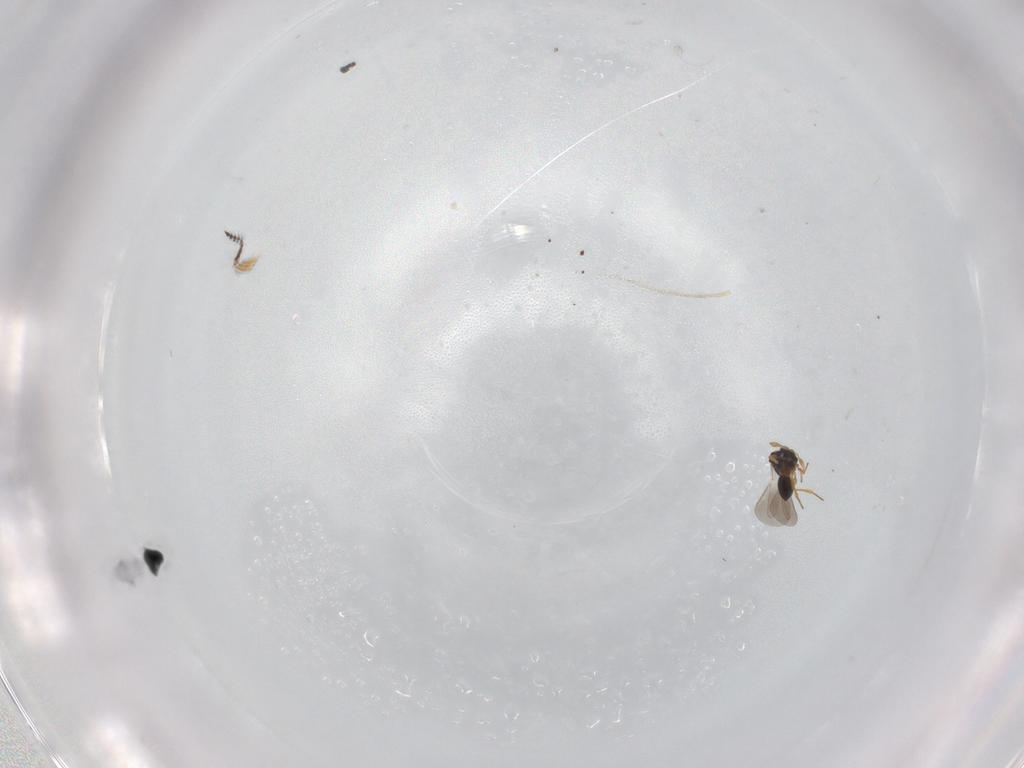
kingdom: Animalia
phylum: Arthropoda
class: Insecta
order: Hymenoptera
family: Platygastridae
